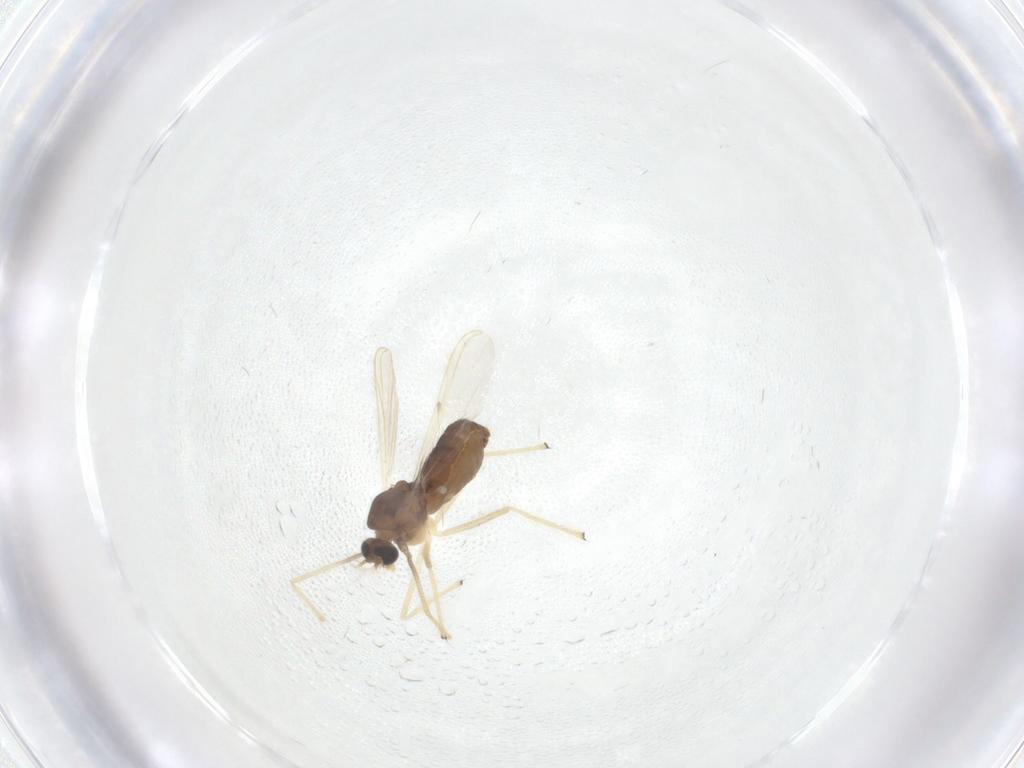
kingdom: Animalia
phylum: Arthropoda
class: Insecta
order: Diptera
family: Chironomidae
